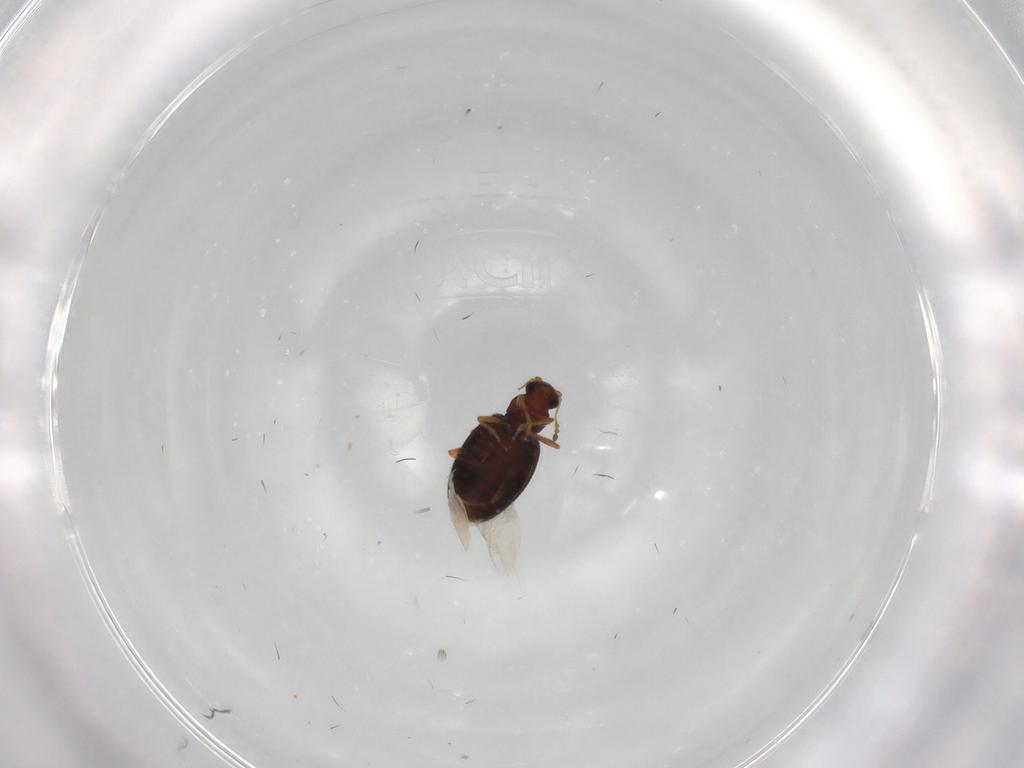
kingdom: Animalia
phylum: Arthropoda
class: Insecta
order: Coleoptera
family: Latridiidae
